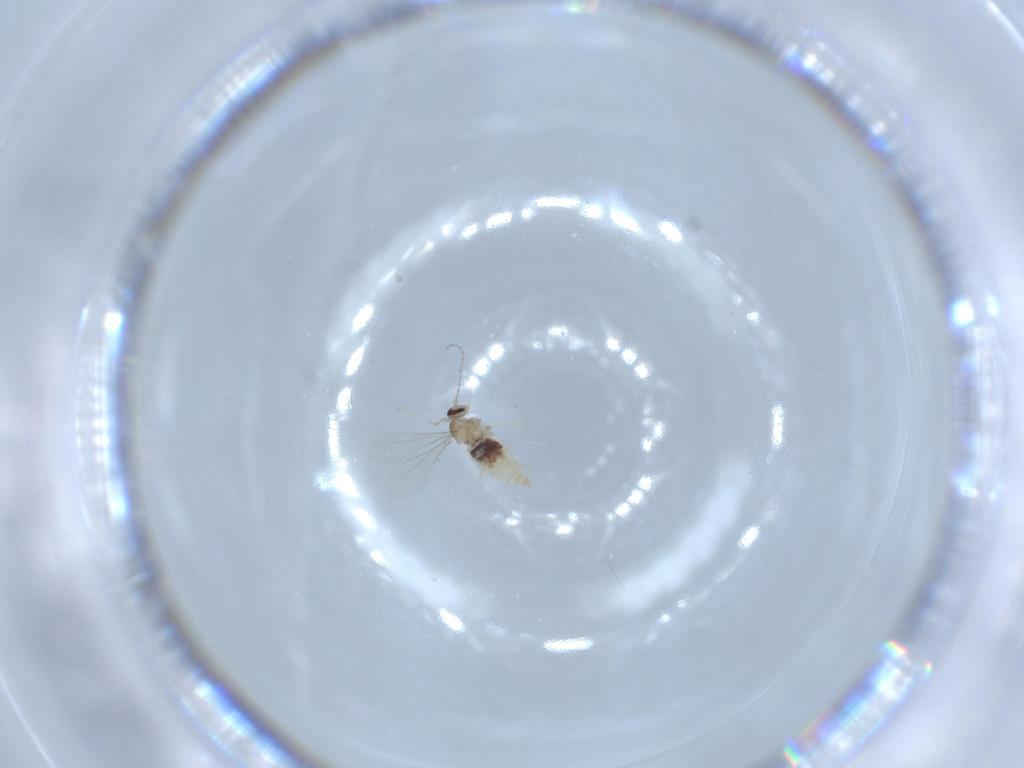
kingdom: Animalia
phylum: Arthropoda
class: Insecta
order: Diptera
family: Cecidomyiidae
